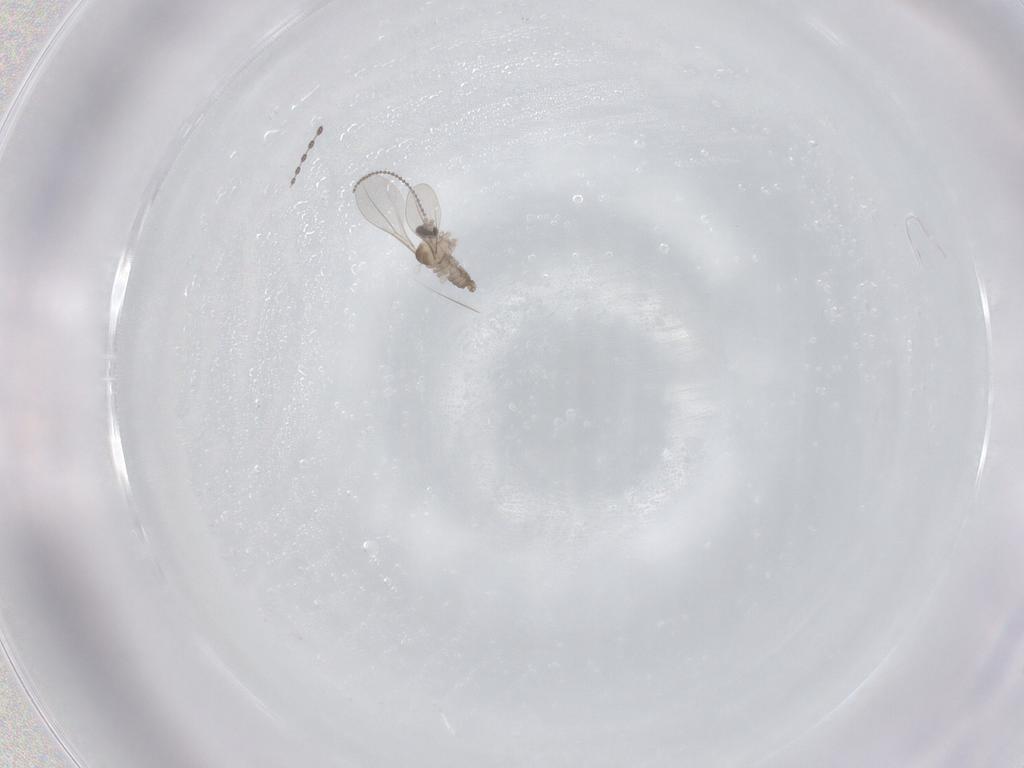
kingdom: Animalia
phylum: Arthropoda
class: Insecta
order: Diptera
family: Cecidomyiidae
